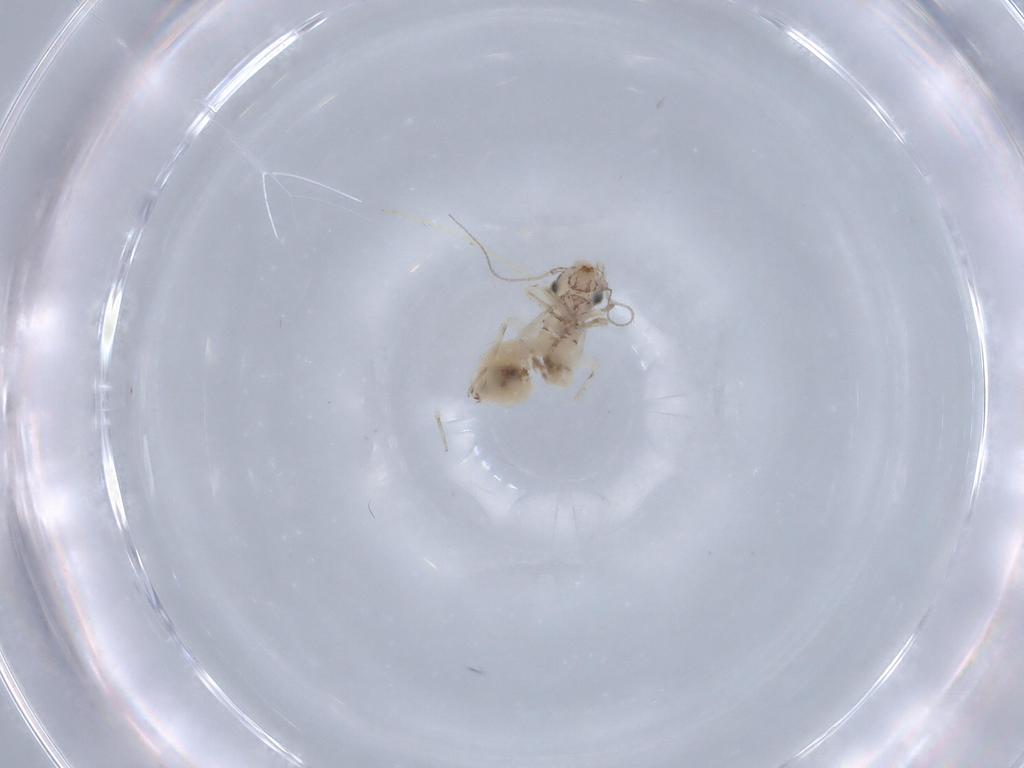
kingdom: Animalia
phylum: Arthropoda
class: Insecta
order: Psocodea
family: Lepidopsocidae
